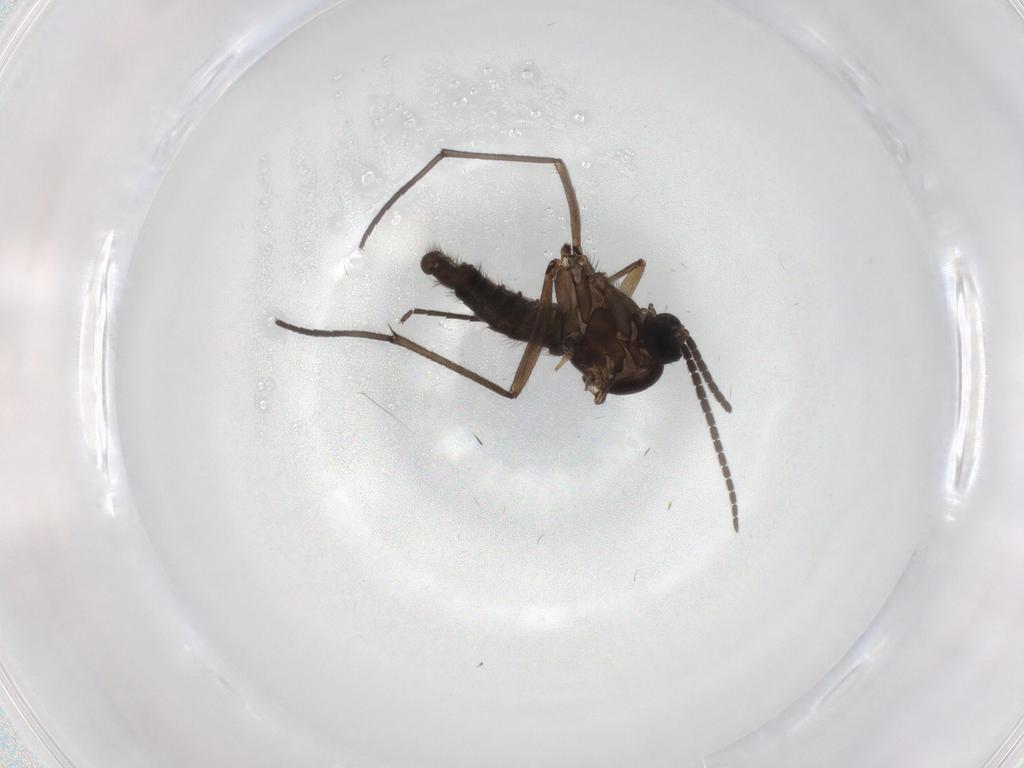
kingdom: Animalia
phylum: Arthropoda
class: Insecta
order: Diptera
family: Sciaridae
